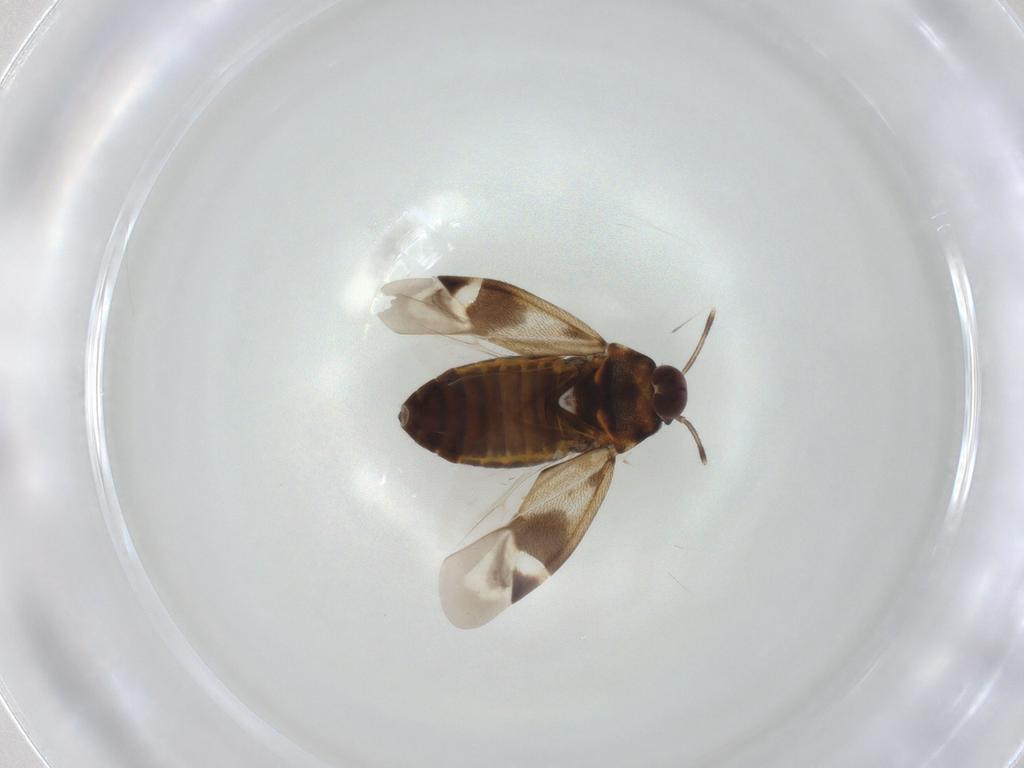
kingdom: Animalia
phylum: Arthropoda
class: Insecta
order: Hemiptera
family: Miridae
